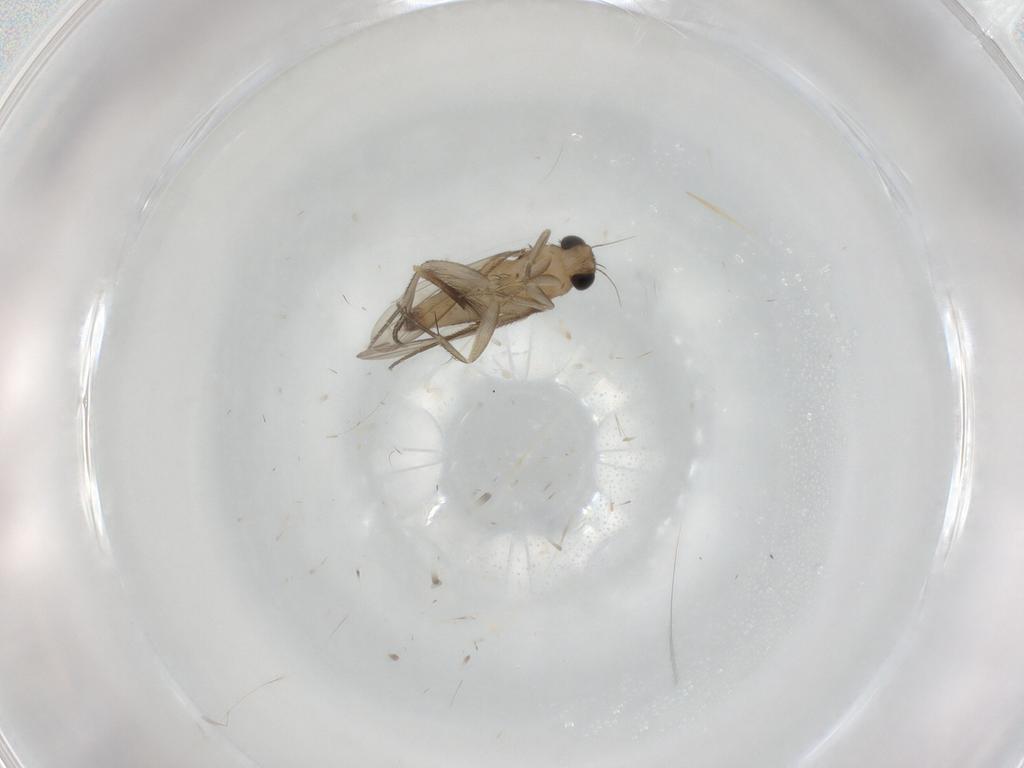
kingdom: Animalia
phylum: Arthropoda
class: Insecta
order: Diptera
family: Phoridae
